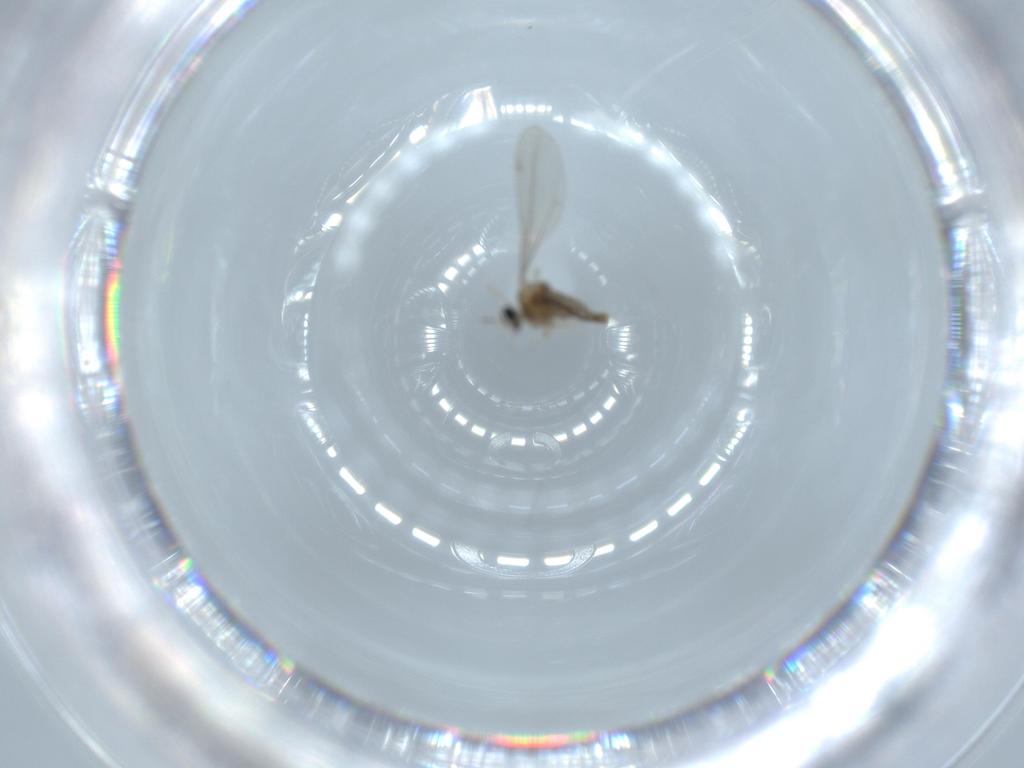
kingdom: Animalia
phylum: Arthropoda
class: Insecta
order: Diptera
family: Cecidomyiidae
